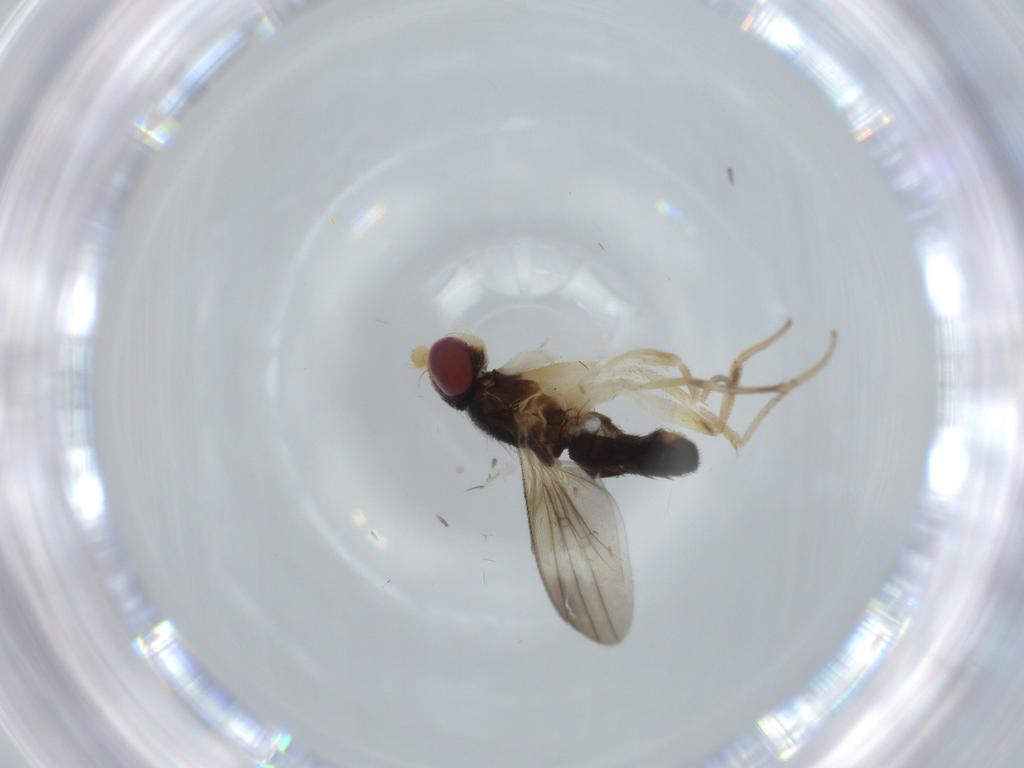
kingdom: Animalia
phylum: Arthropoda
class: Insecta
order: Diptera
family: Clusiidae
